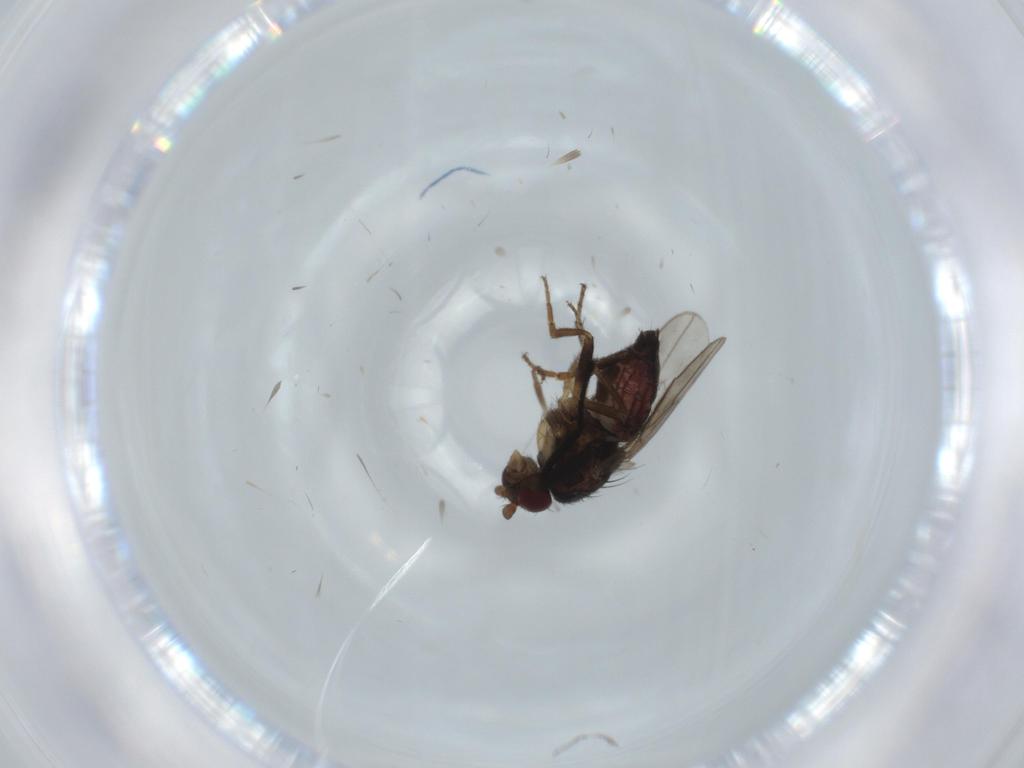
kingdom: Animalia
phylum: Arthropoda
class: Insecta
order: Diptera
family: Sphaeroceridae
